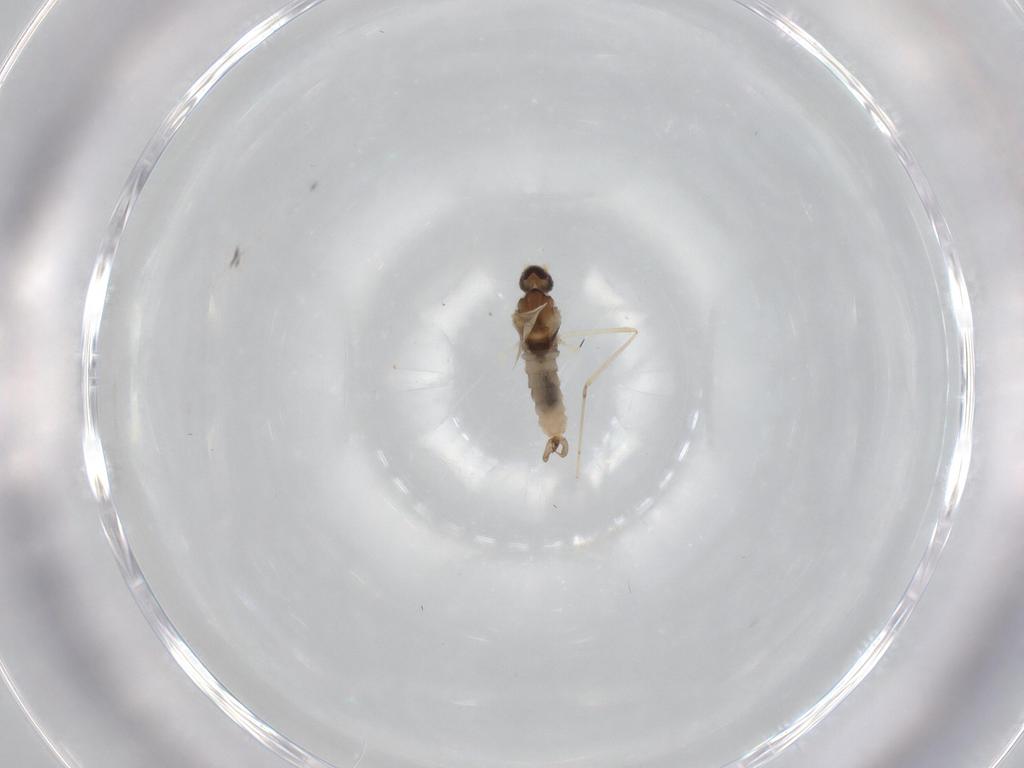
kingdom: Animalia
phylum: Arthropoda
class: Insecta
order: Diptera
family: Cecidomyiidae
